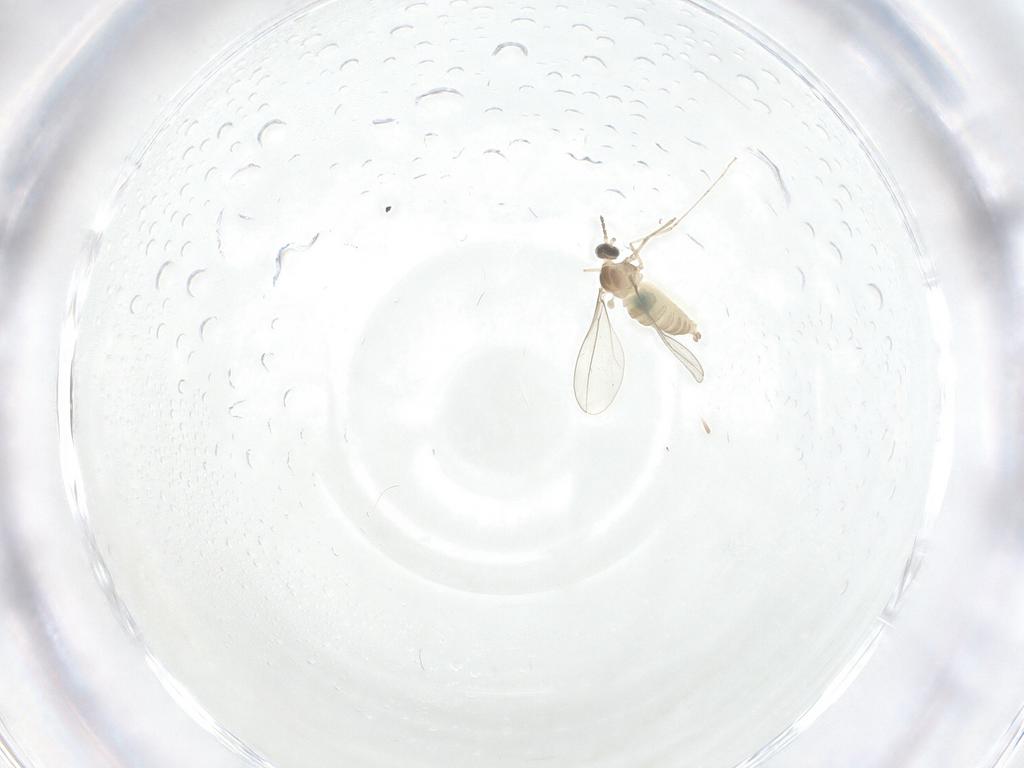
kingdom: Animalia
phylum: Arthropoda
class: Insecta
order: Diptera
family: Cecidomyiidae
